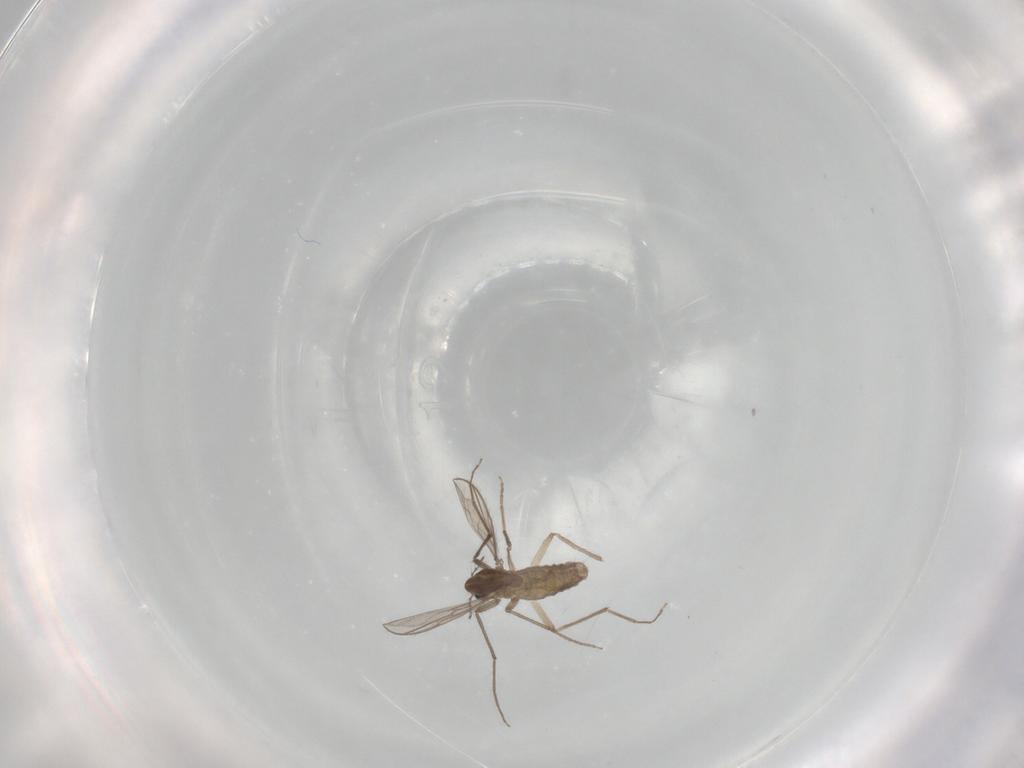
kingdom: Animalia
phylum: Arthropoda
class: Insecta
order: Diptera
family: Chironomidae
